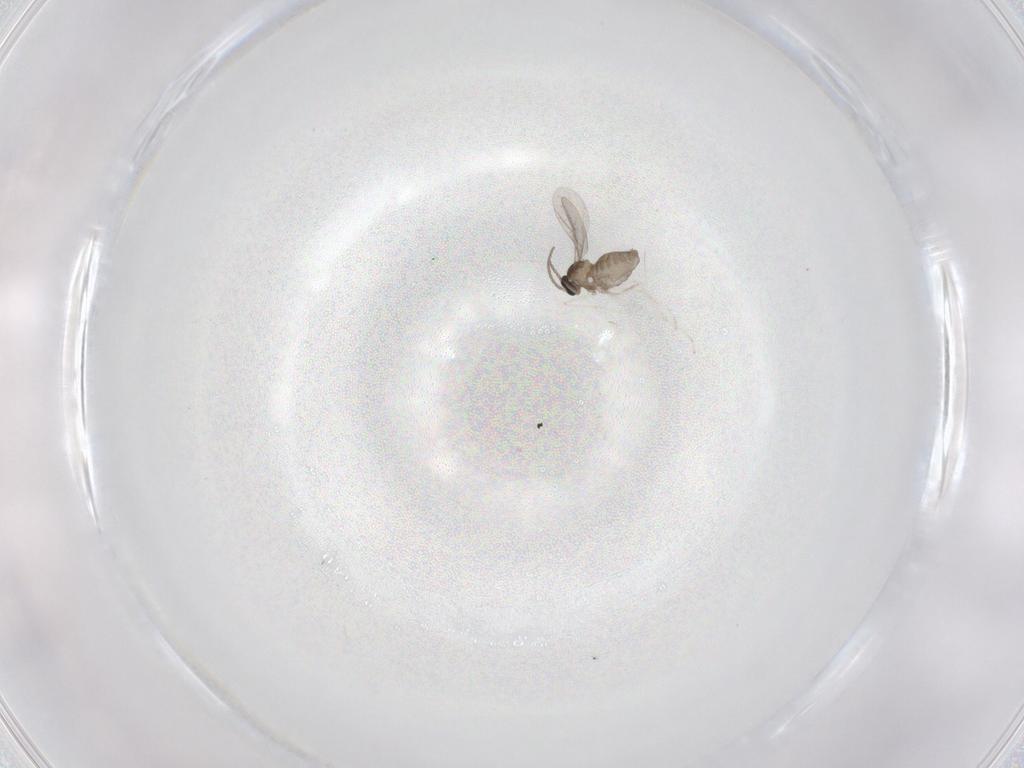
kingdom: Animalia
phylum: Arthropoda
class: Insecta
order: Diptera
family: Cecidomyiidae
